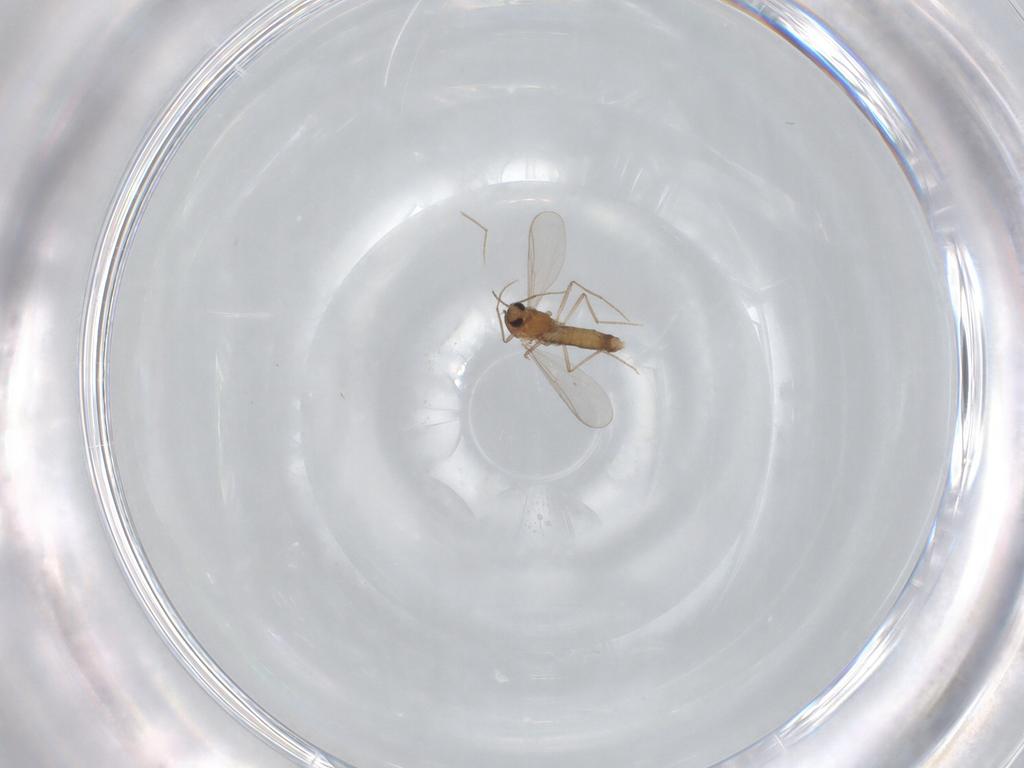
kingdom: Animalia
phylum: Arthropoda
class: Insecta
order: Diptera
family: Chironomidae
